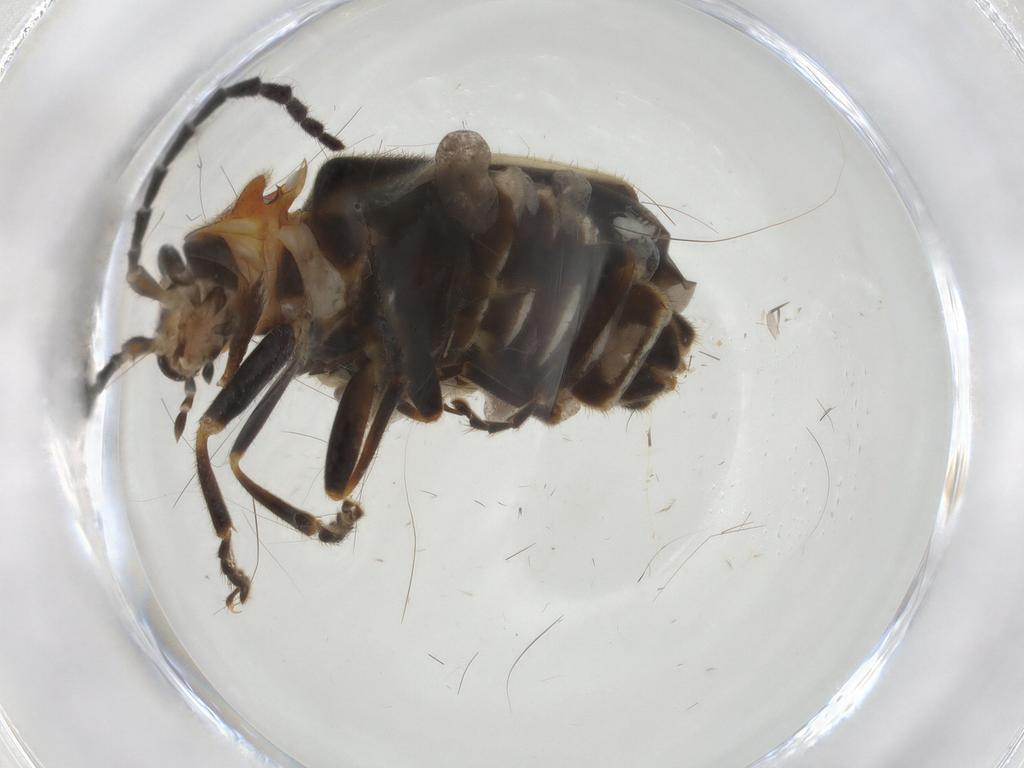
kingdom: Animalia
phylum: Arthropoda
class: Insecta
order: Coleoptera
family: Cantharidae
